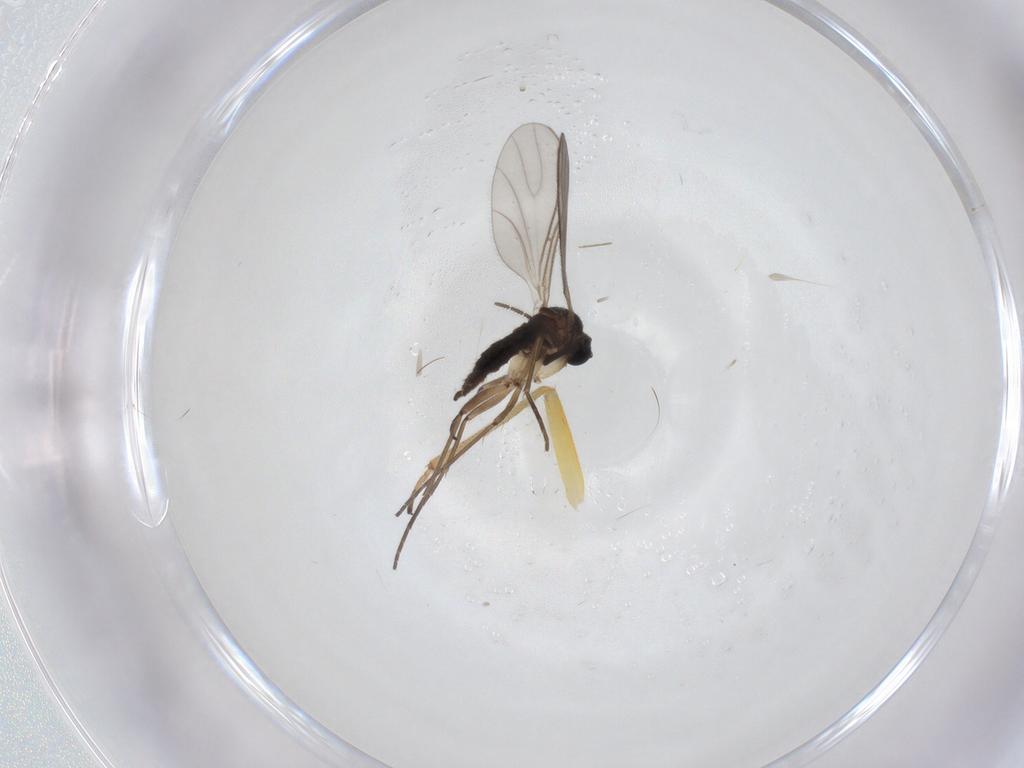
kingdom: Animalia
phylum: Arthropoda
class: Insecta
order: Diptera
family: Sciaridae
